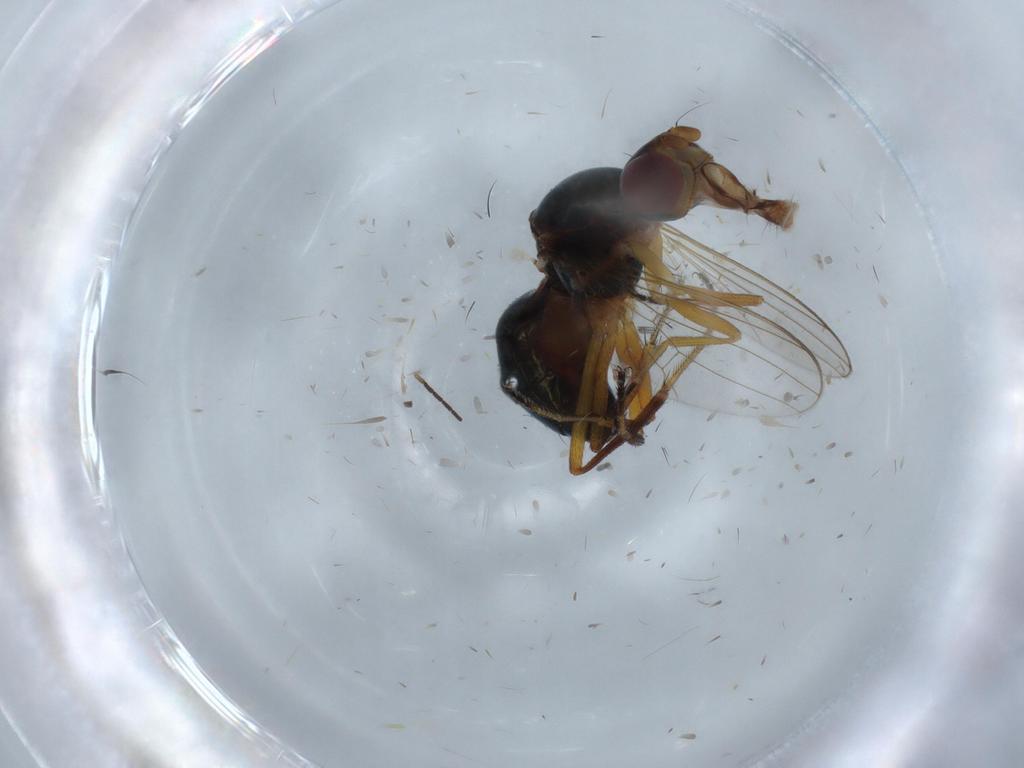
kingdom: Animalia
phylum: Arthropoda
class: Insecta
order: Diptera
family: Sepsidae
